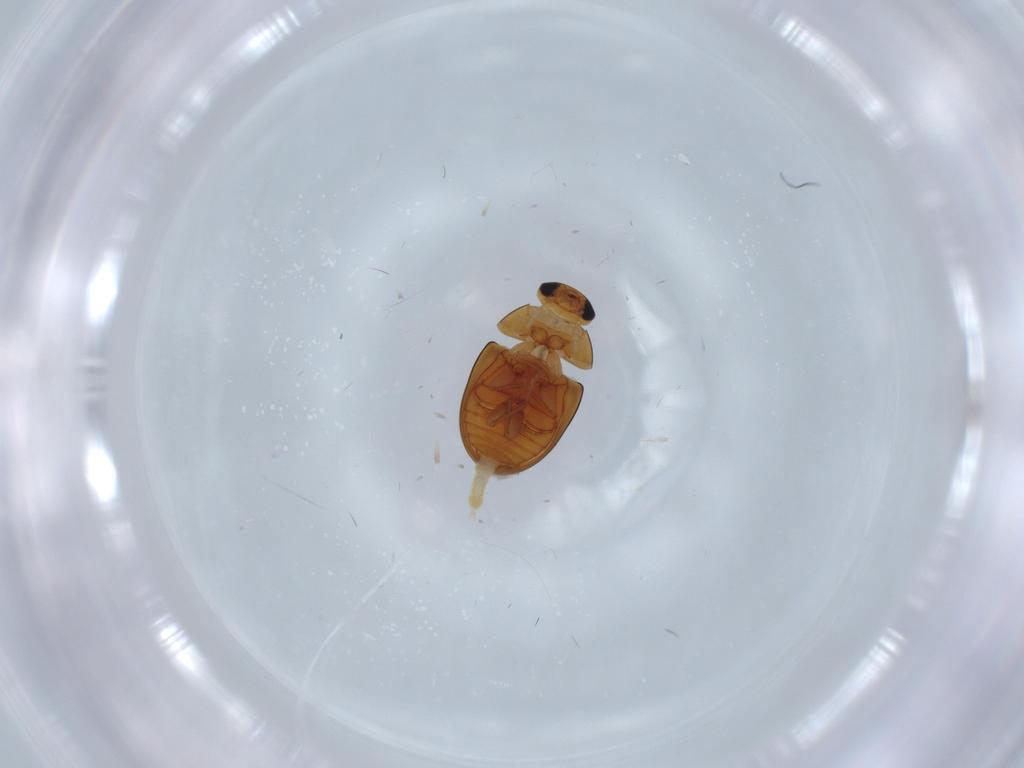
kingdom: Animalia
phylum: Arthropoda
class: Insecta
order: Coleoptera
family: Phalacridae
